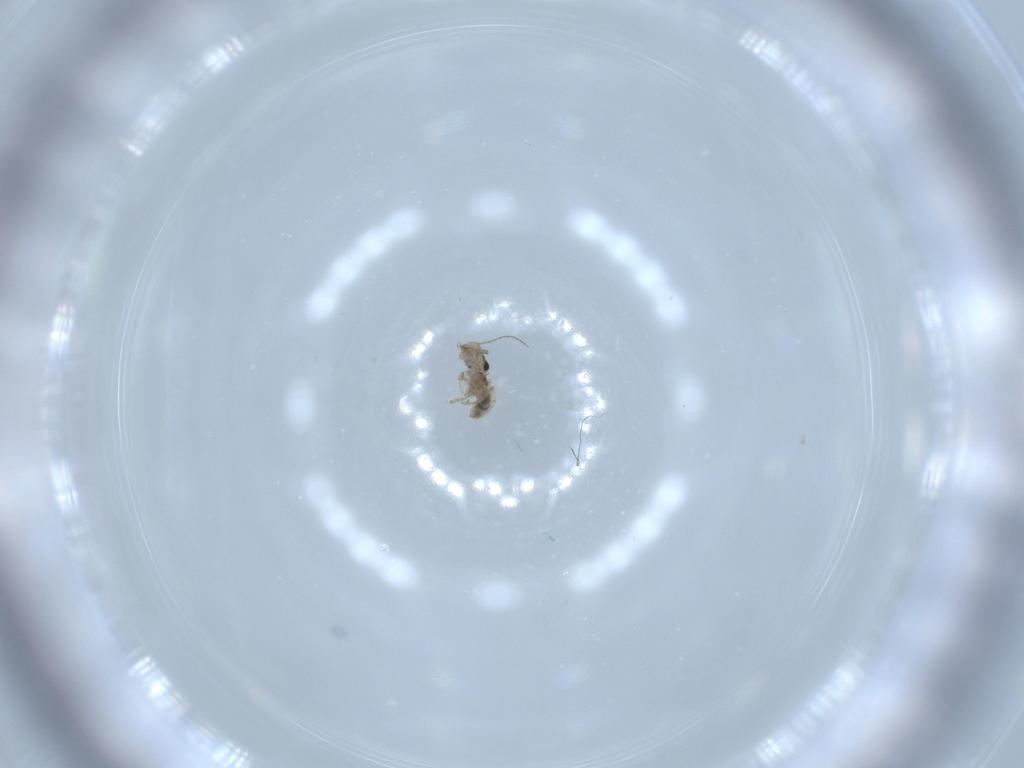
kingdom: Animalia
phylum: Arthropoda
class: Insecta
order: Psocodea
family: Lepidopsocidae
